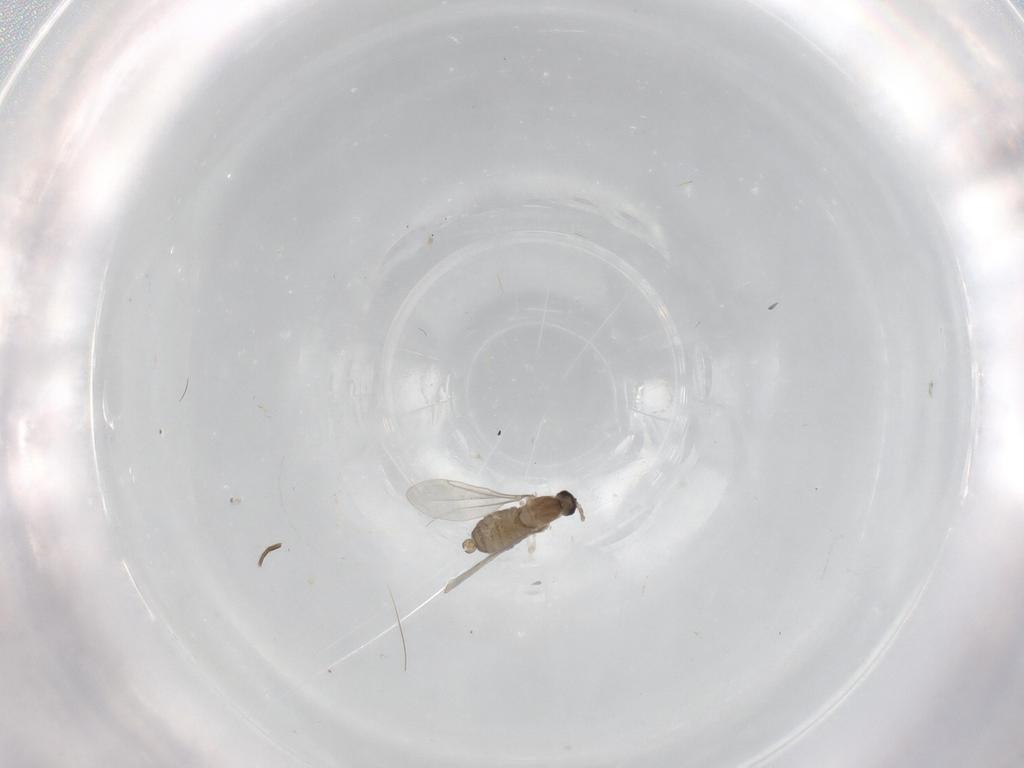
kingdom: Animalia
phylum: Arthropoda
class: Insecta
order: Diptera
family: Cecidomyiidae
